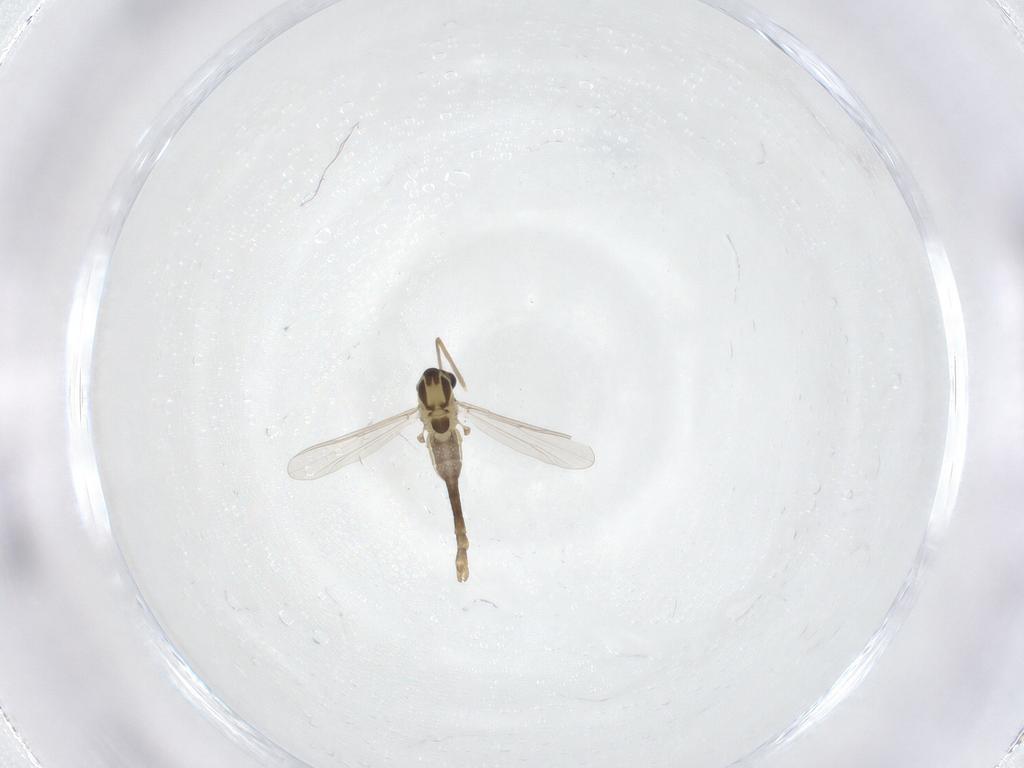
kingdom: Animalia
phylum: Arthropoda
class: Insecta
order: Diptera
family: Chironomidae
